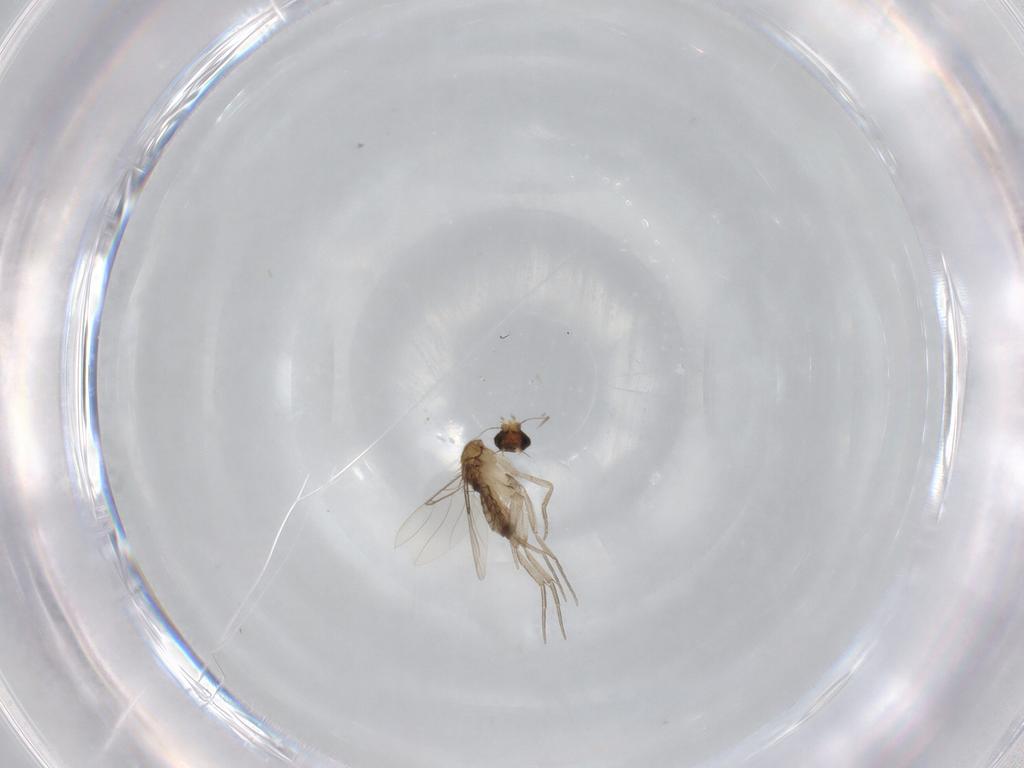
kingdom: Animalia
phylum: Arthropoda
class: Insecta
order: Diptera
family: Phoridae
